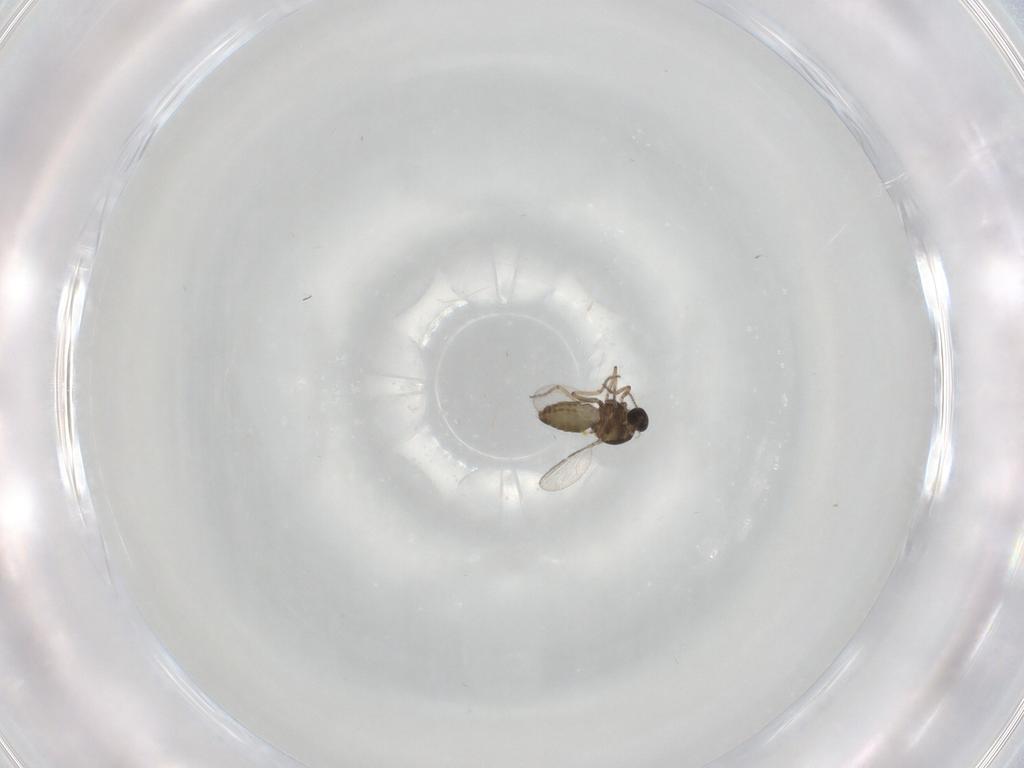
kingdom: Animalia
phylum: Arthropoda
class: Insecta
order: Diptera
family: Ceratopogonidae
